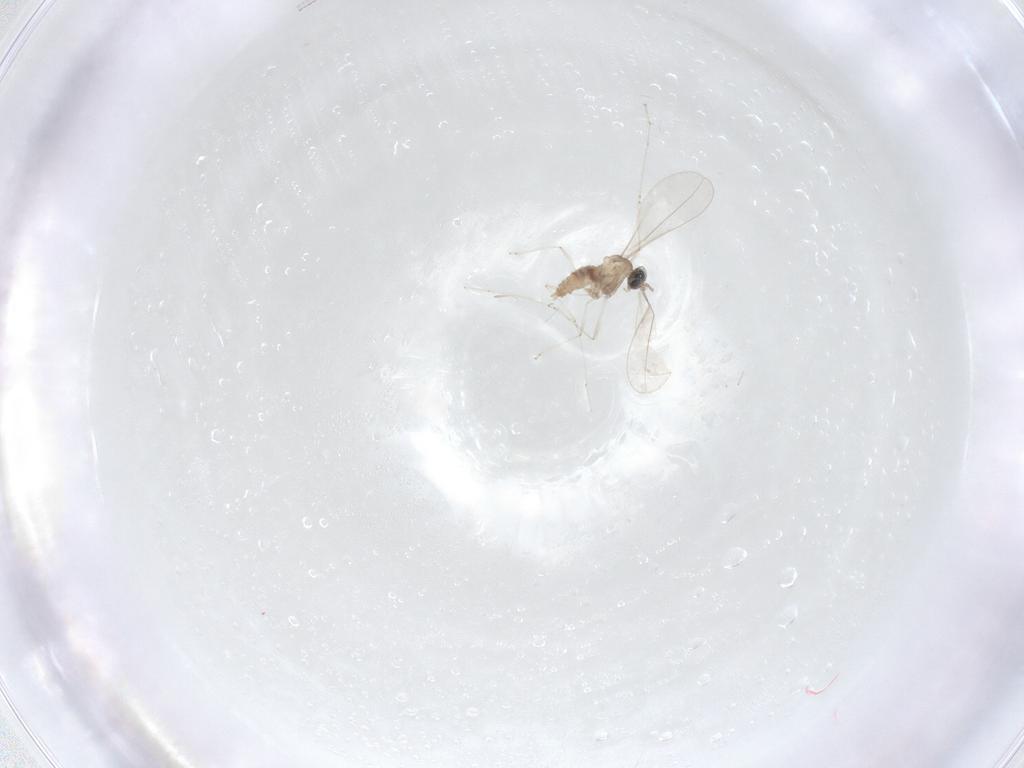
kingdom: Animalia
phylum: Arthropoda
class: Insecta
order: Diptera
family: Cecidomyiidae
